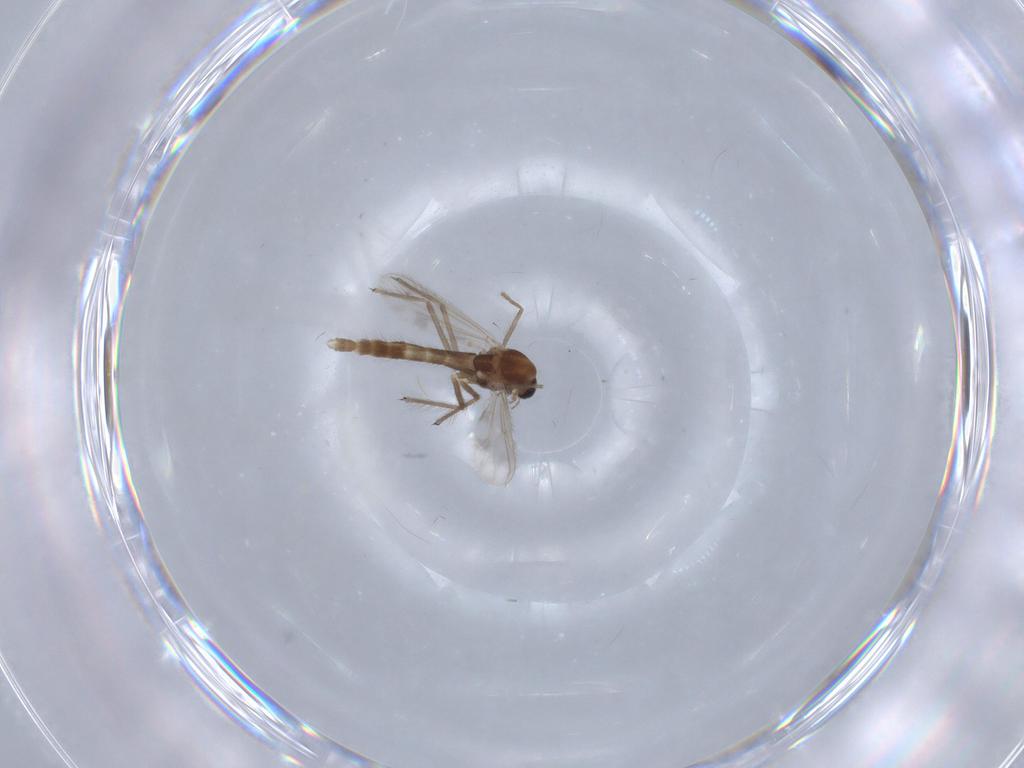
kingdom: Animalia
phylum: Arthropoda
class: Insecta
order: Diptera
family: Chironomidae
